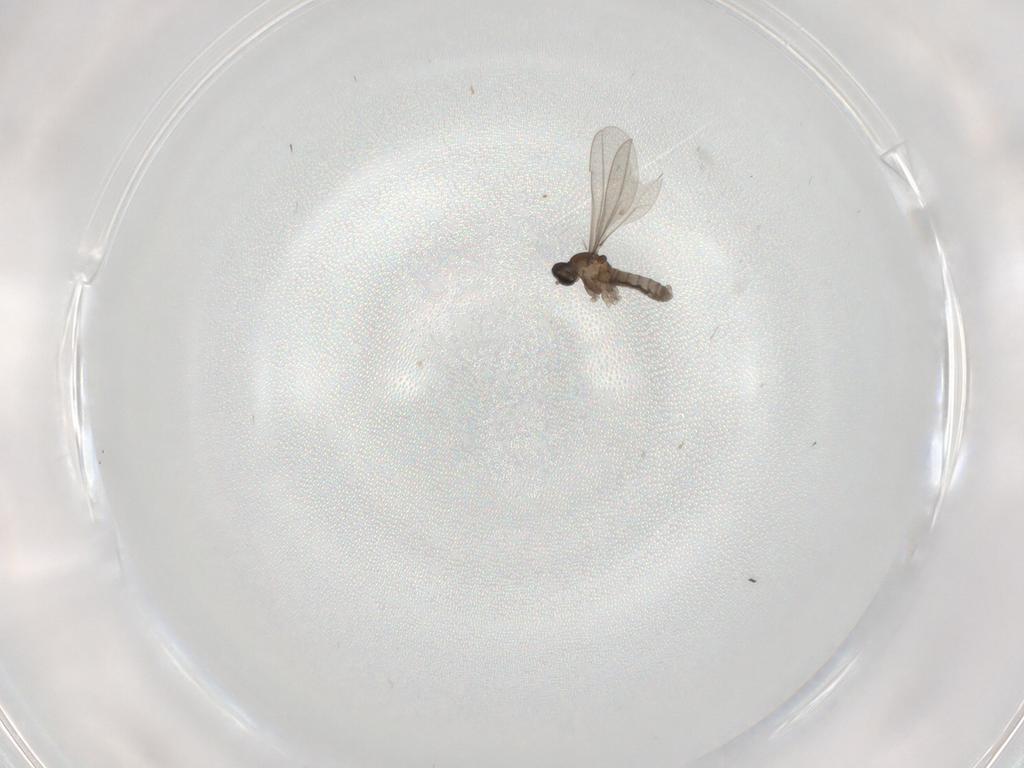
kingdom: Animalia
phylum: Arthropoda
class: Insecta
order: Diptera
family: Cecidomyiidae
